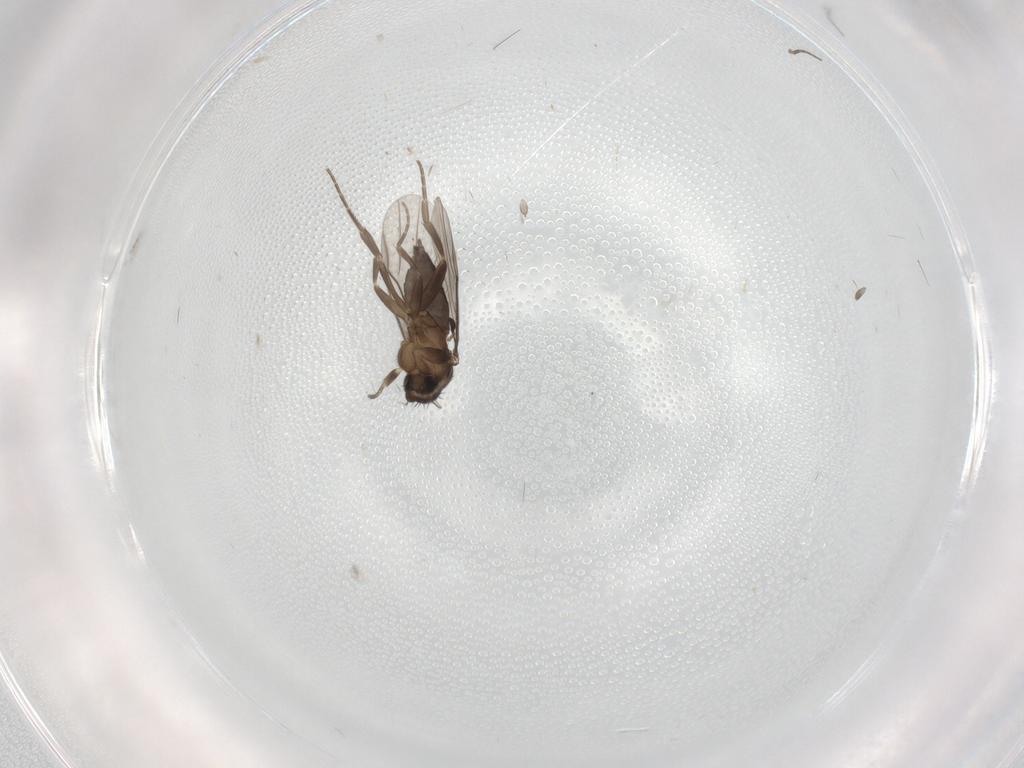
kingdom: Animalia
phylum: Arthropoda
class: Insecta
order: Diptera
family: Phoridae
